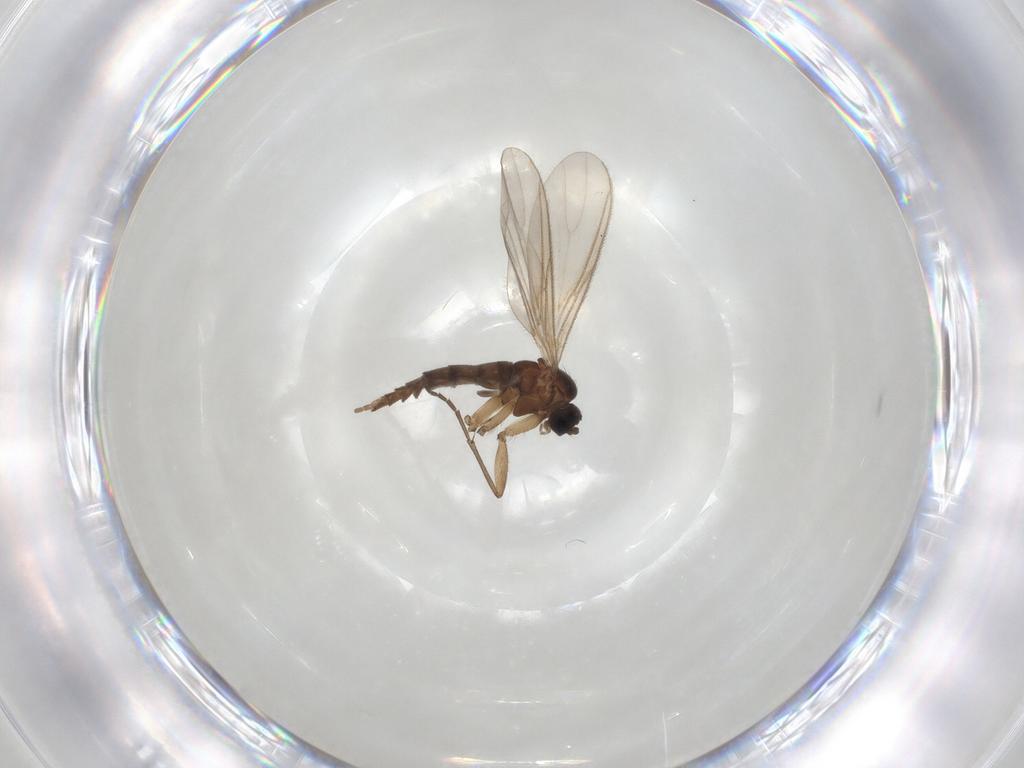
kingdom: Animalia
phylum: Arthropoda
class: Insecta
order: Diptera
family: Sciaridae
